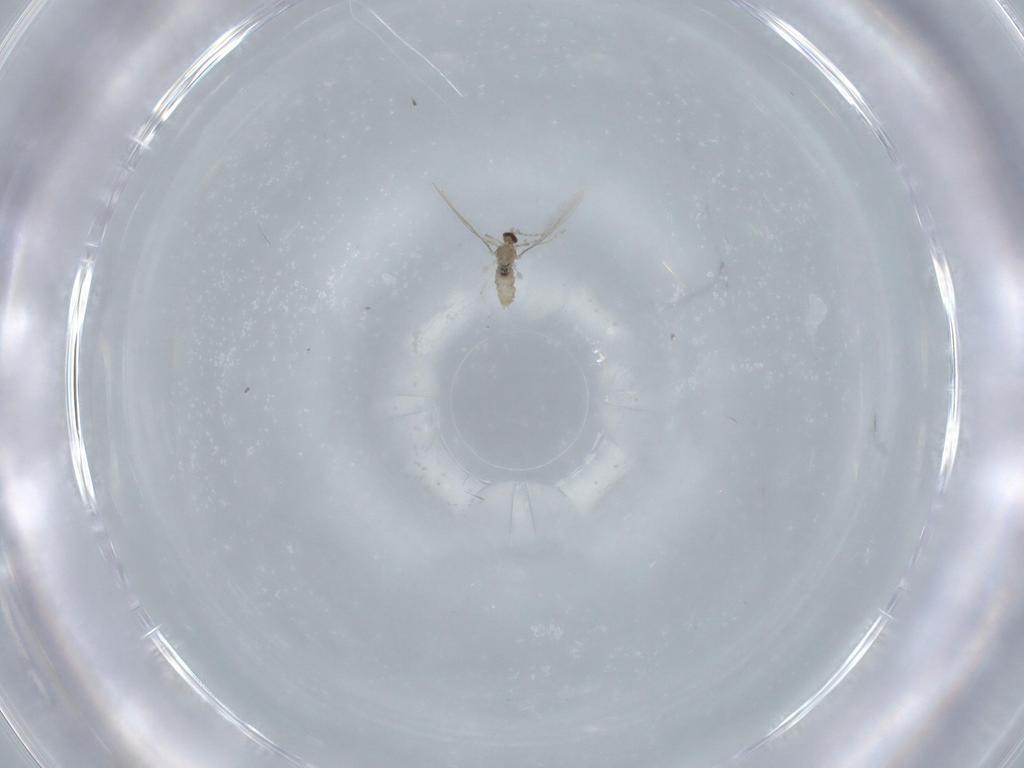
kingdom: Animalia
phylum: Arthropoda
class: Insecta
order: Diptera
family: Cecidomyiidae
